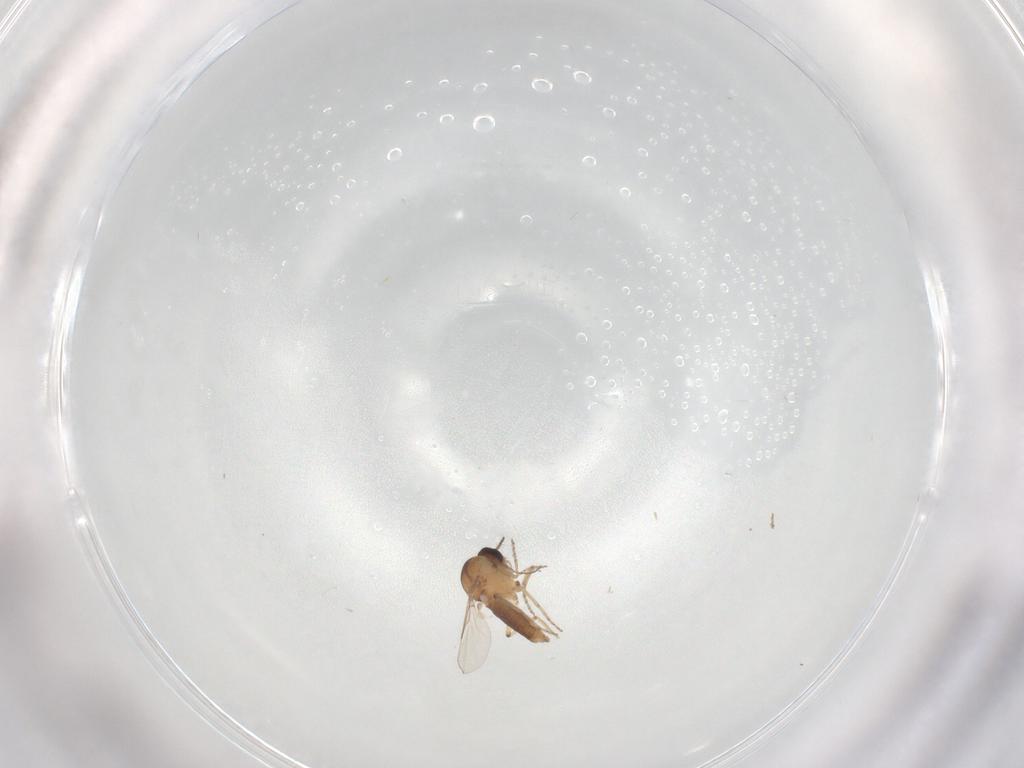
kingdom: Animalia
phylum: Arthropoda
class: Insecta
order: Diptera
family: Ceratopogonidae
